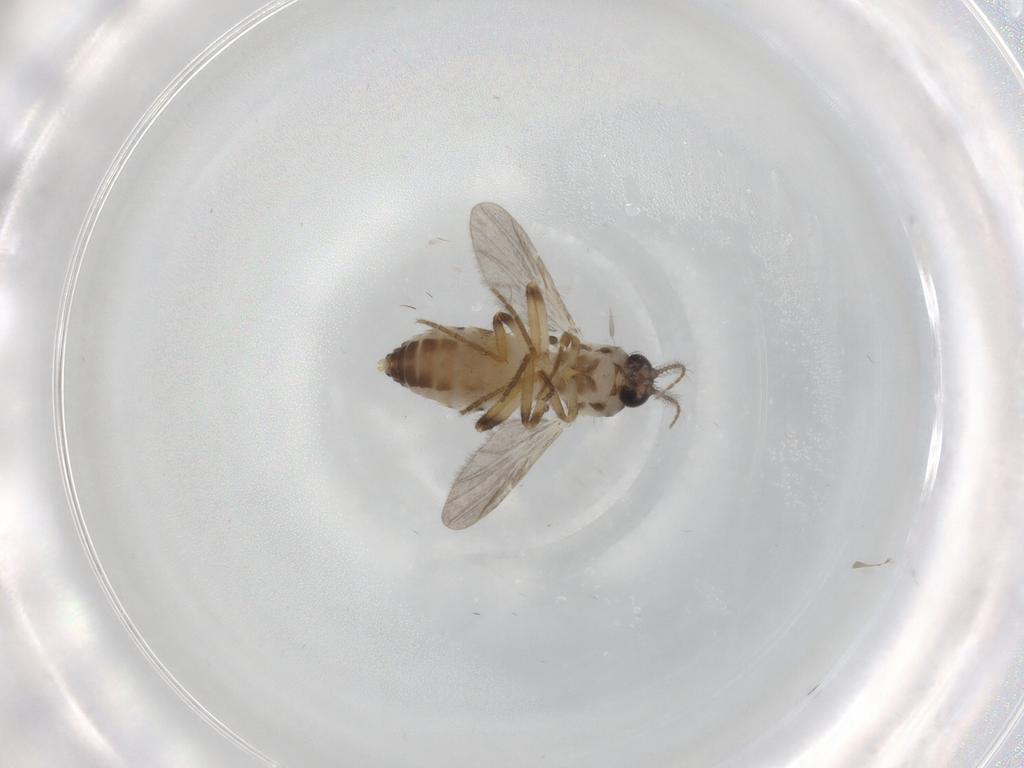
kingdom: Animalia
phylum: Arthropoda
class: Insecta
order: Diptera
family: Ceratopogonidae
